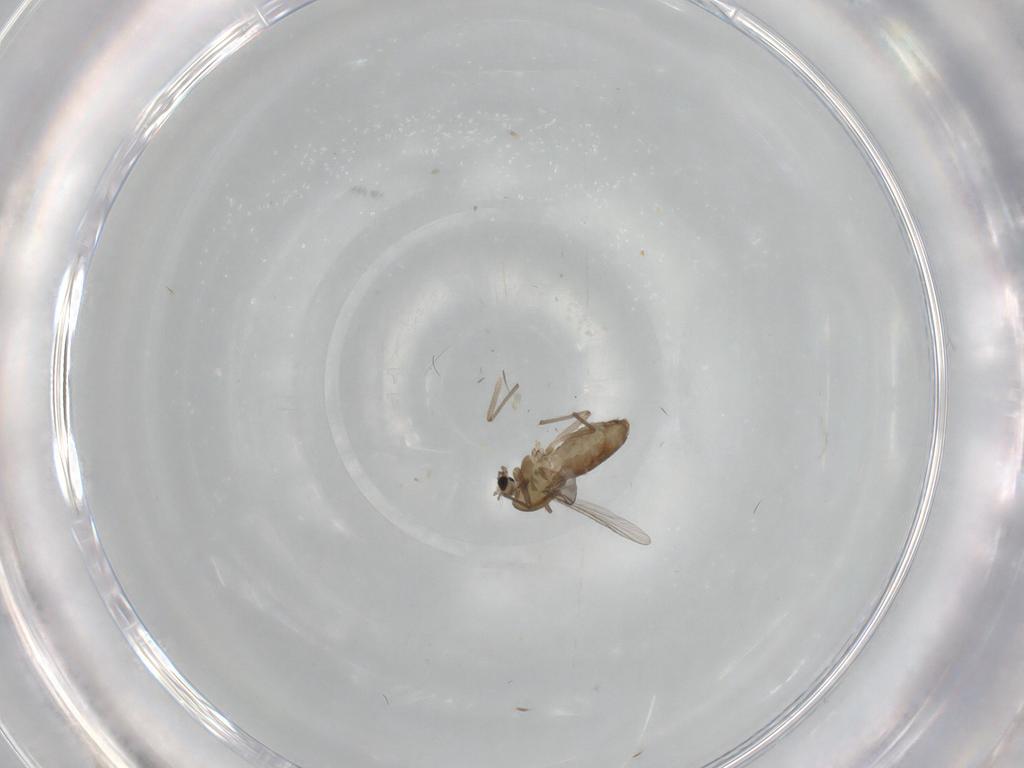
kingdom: Animalia
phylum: Arthropoda
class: Insecta
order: Diptera
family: Chironomidae
